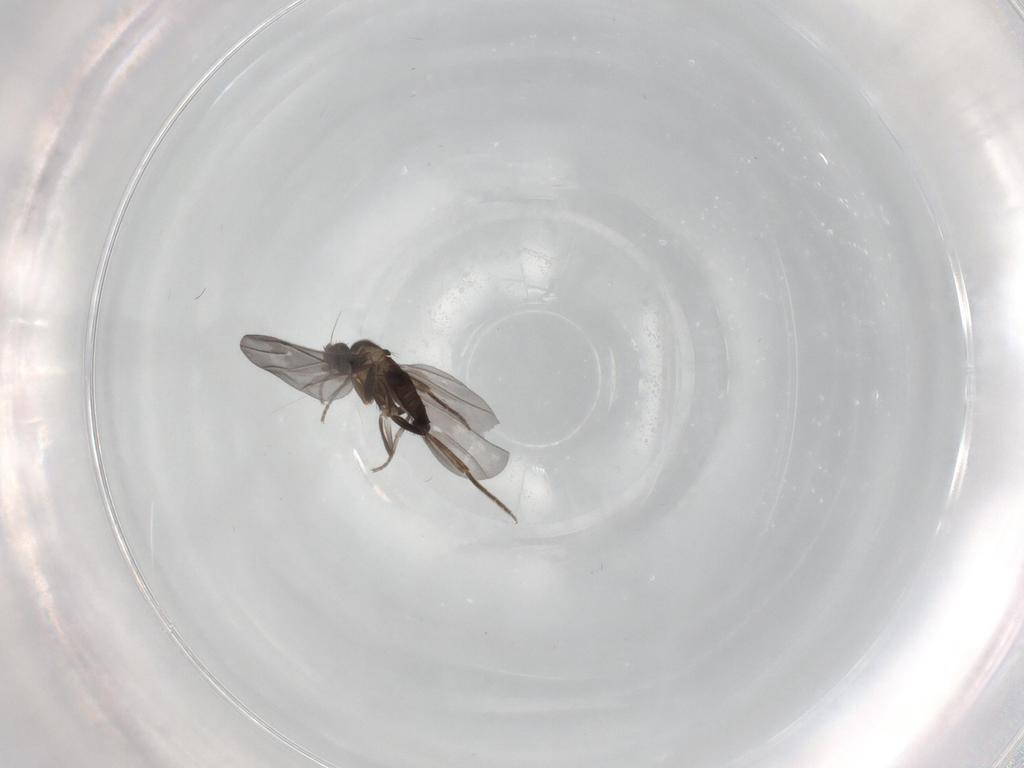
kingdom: Animalia
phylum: Arthropoda
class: Insecta
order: Diptera
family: Phoridae
